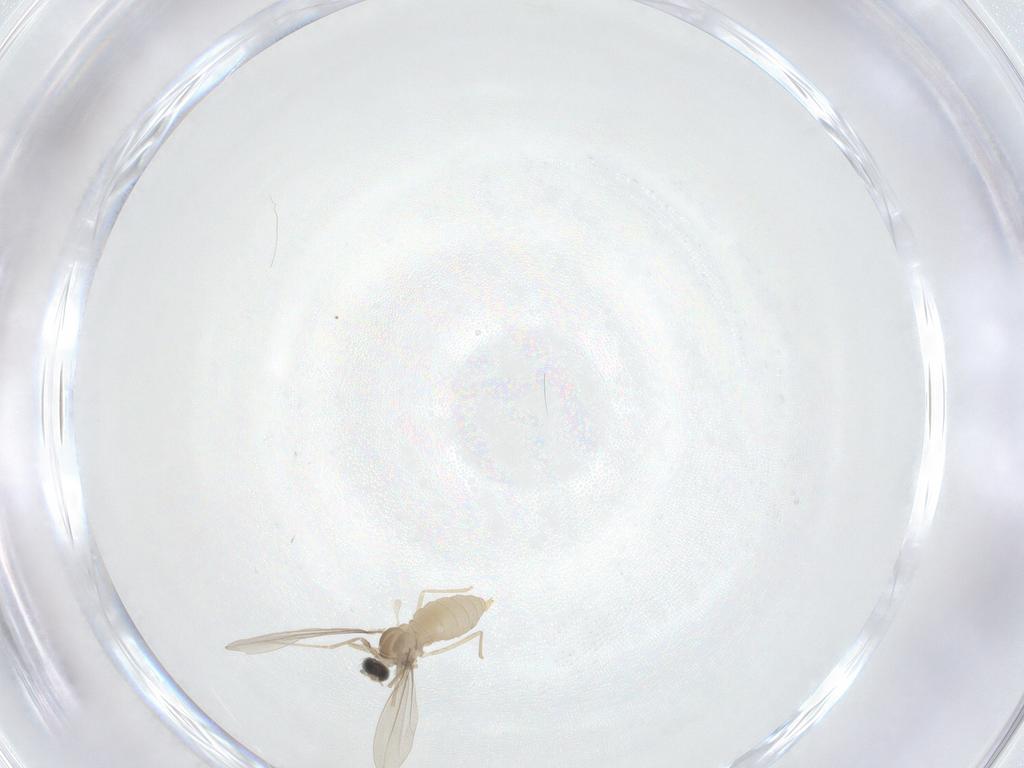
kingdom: Animalia
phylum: Arthropoda
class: Insecta
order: Diptera
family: Cecidomyiidae
